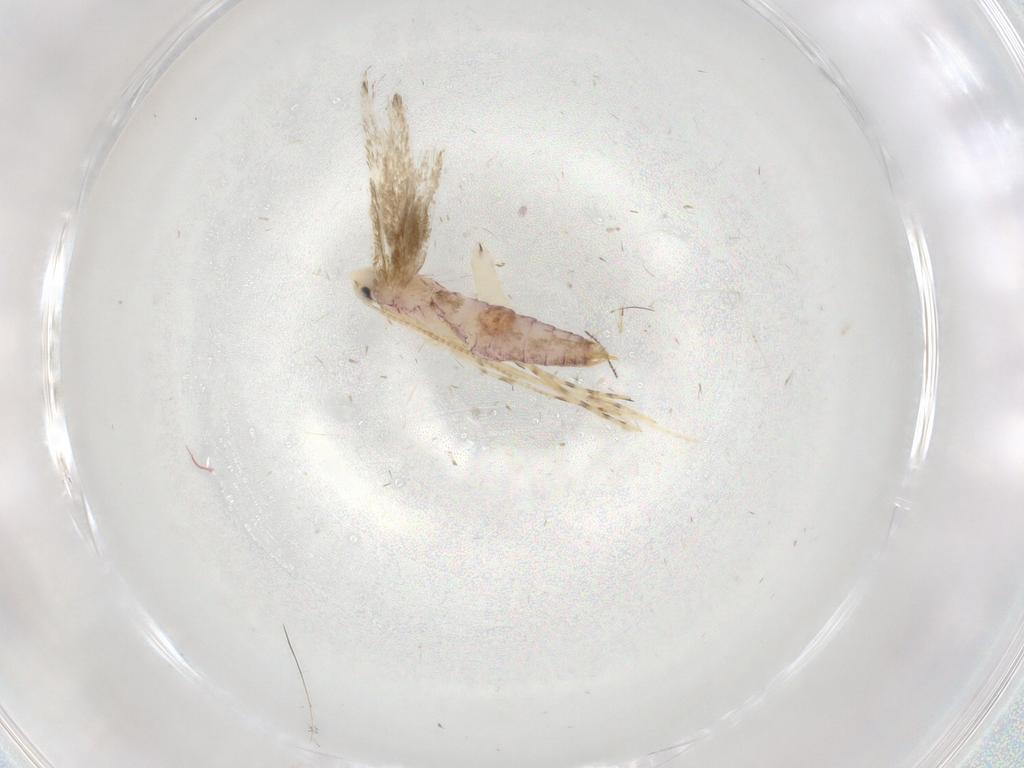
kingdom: Animalia
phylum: Arthropoda
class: Insecta
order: Lepidoptera
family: Lyonetiidae
